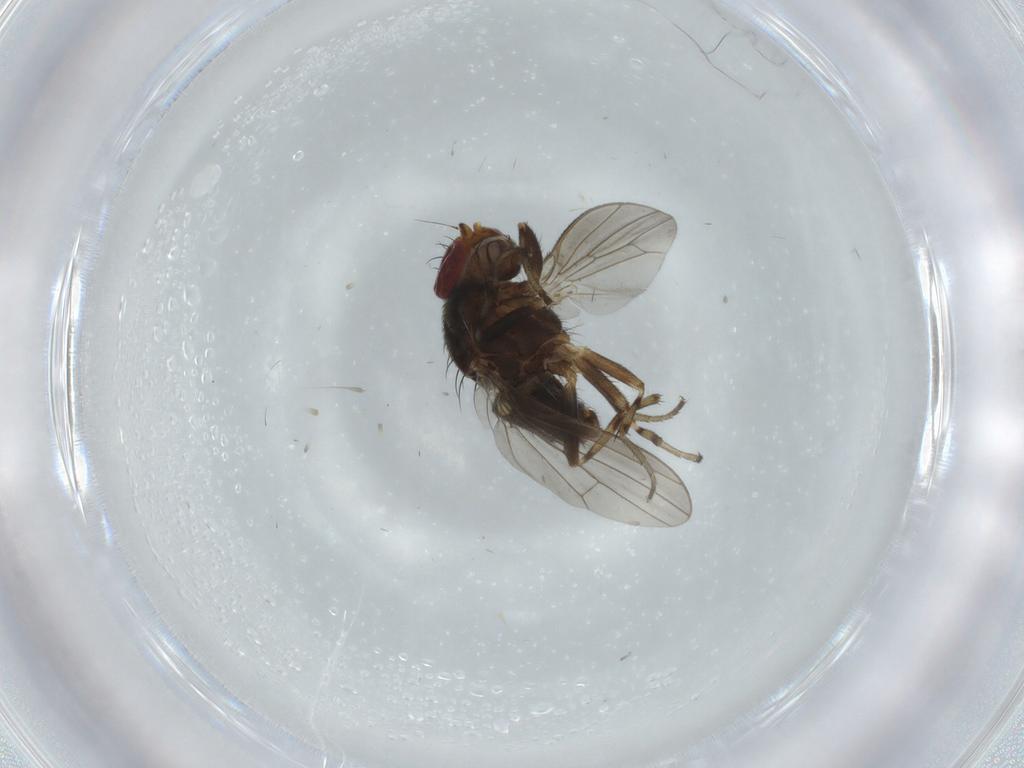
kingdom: Animalia
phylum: Arthropoda
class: Insecta
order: Diptera
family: Heleomyzidae
